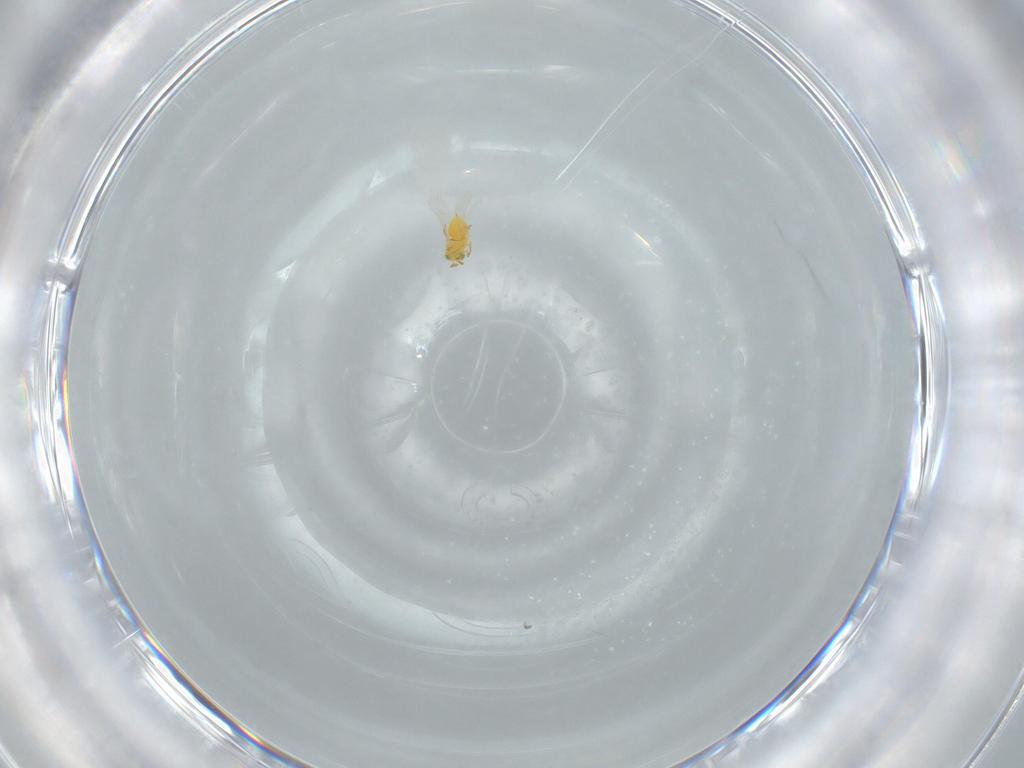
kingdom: Animalia
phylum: Arthropoda
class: Insecta
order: Hymenoptera
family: Aphelinidae
